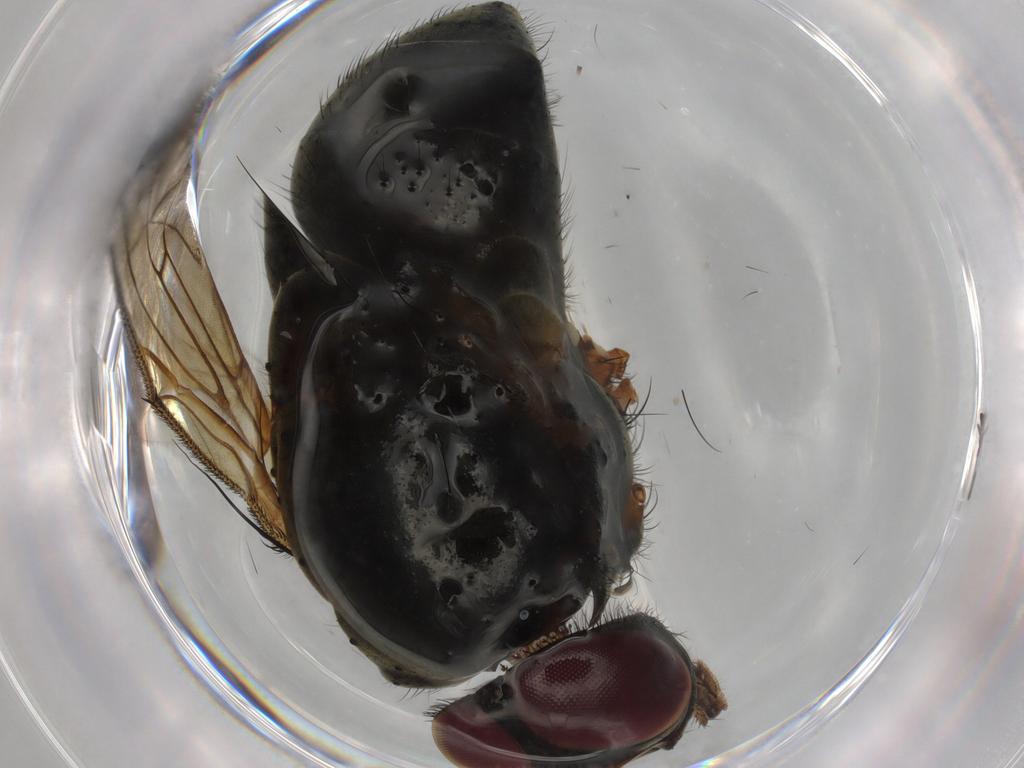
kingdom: Animalia
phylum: Arthropoda
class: Insecta
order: Diptera
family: Muscidae
